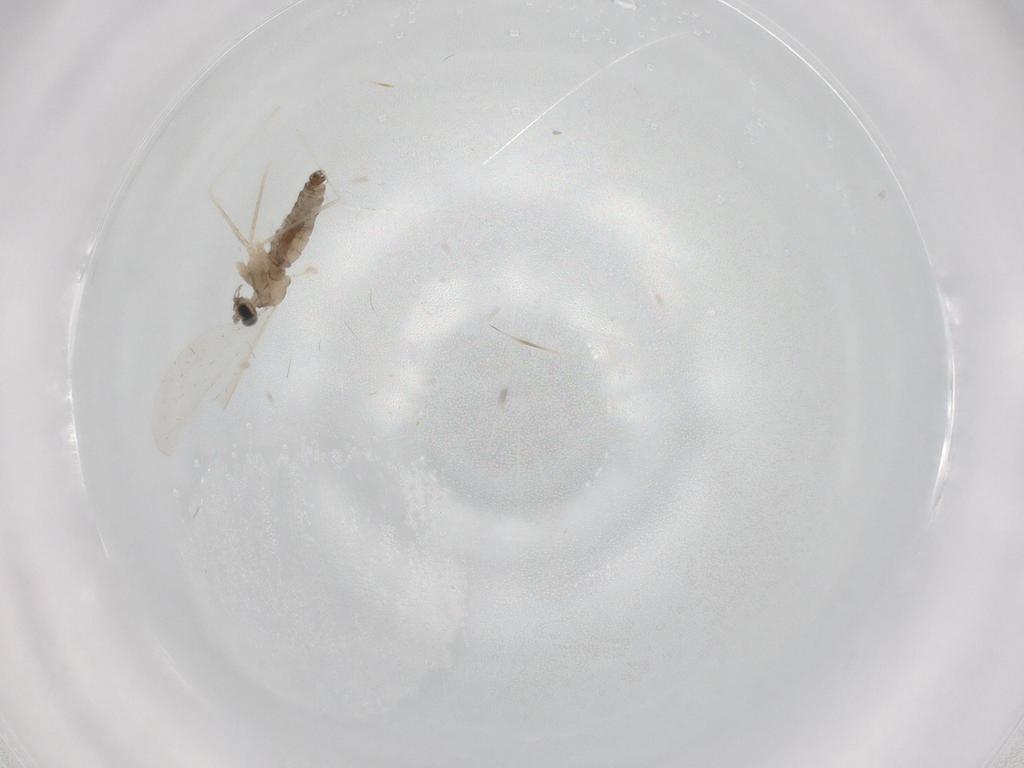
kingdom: Animalia
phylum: Arthropoda
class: Insecta
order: Diptera
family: Cecidomyiidae
